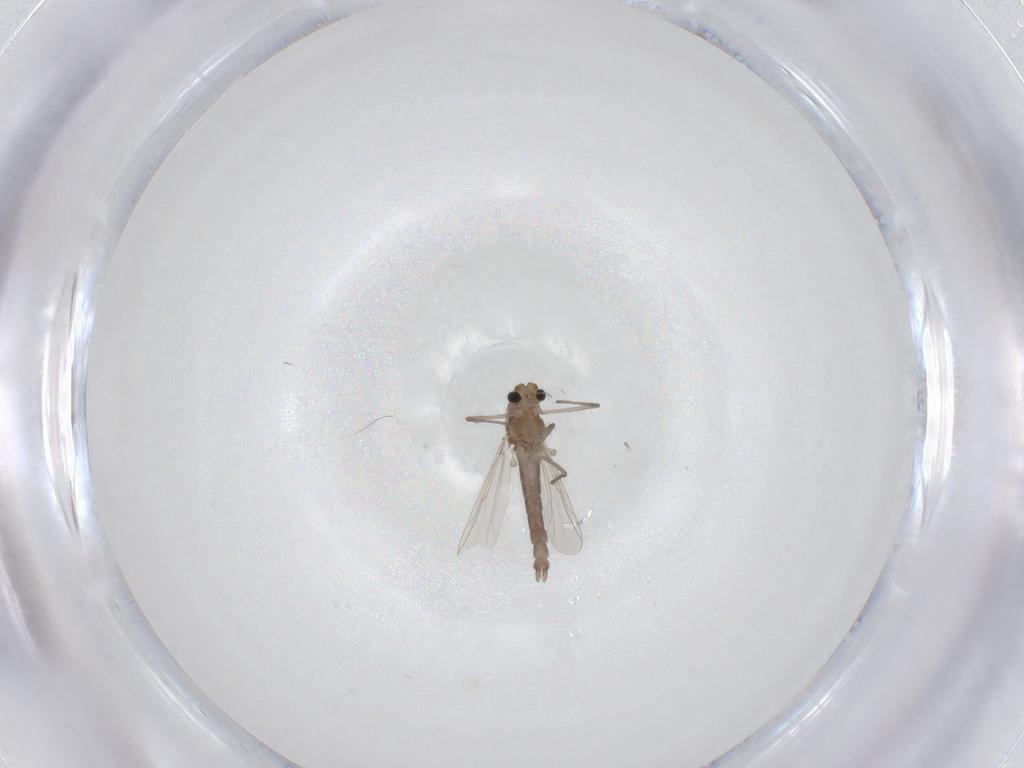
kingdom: Animalia
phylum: Arthropoda
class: Insecta
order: Diptera
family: Chironomidae
